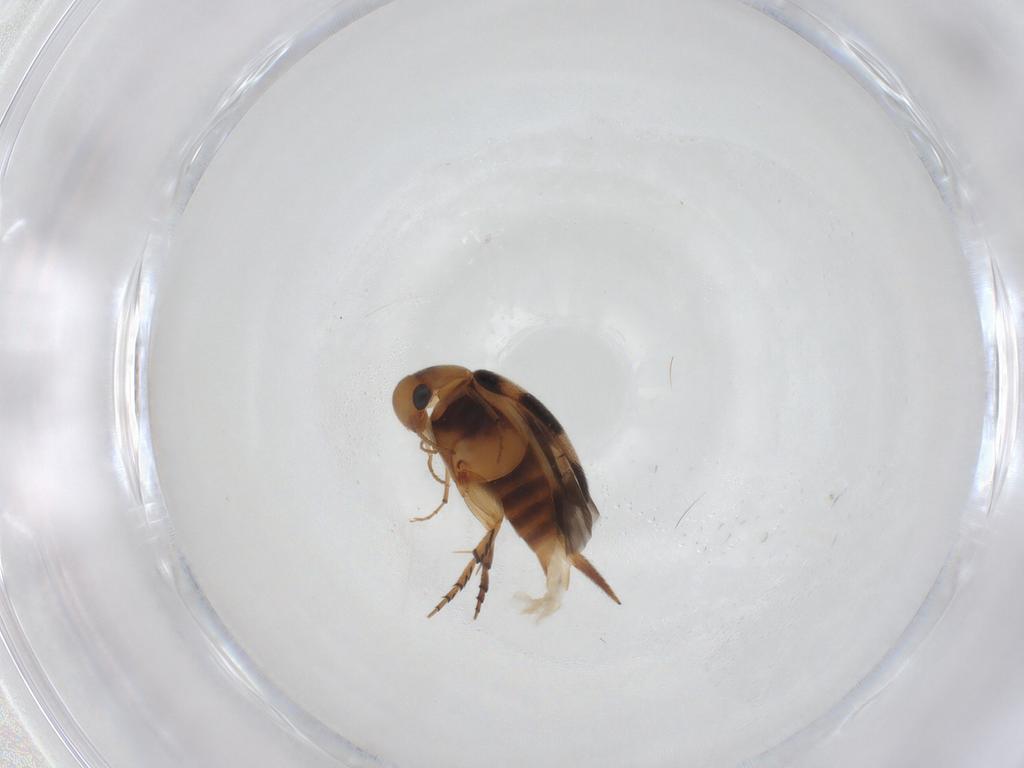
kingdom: Animalia
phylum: Arthropoda
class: Insecta
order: Coleoptera
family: Mordellidae
